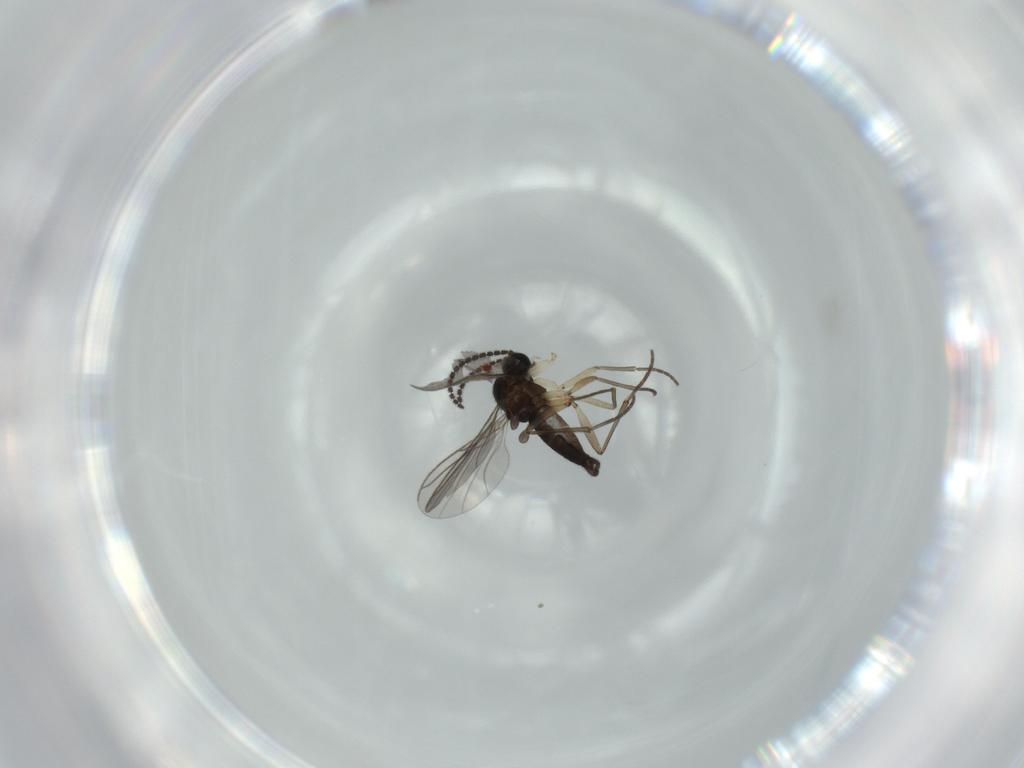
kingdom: Animalia
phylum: Arthropoda
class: Insecta
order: Diptera
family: Sciaridae
